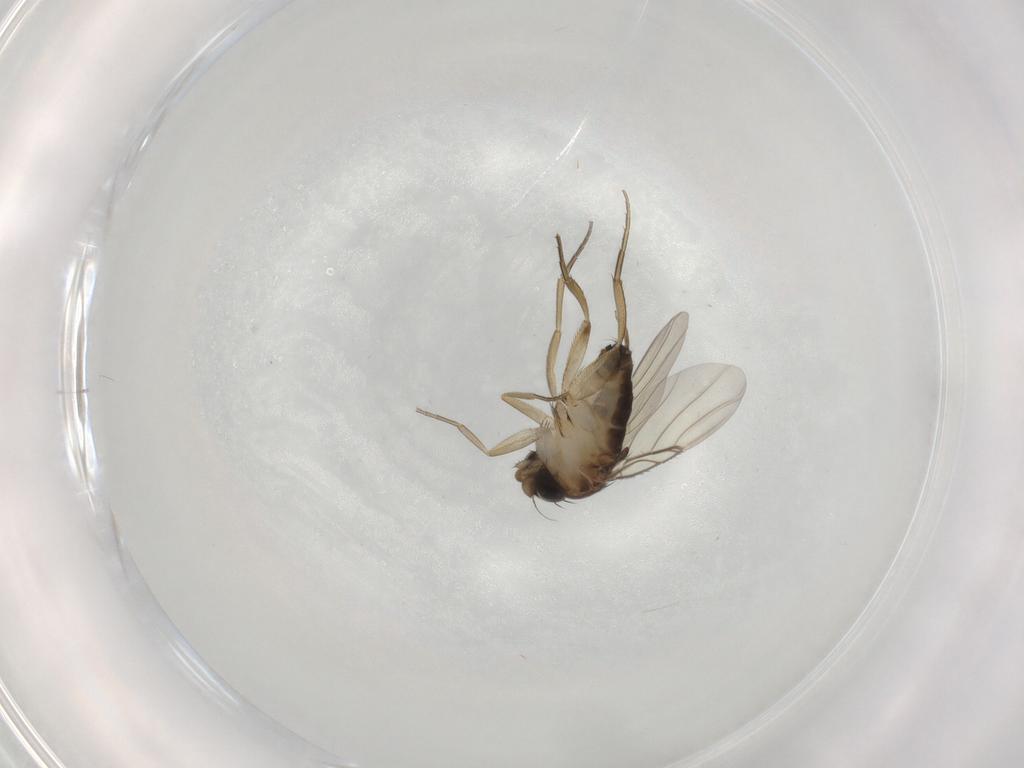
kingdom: Animalia
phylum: Arthropoda
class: Insecta
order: Diptera
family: Phoridae
